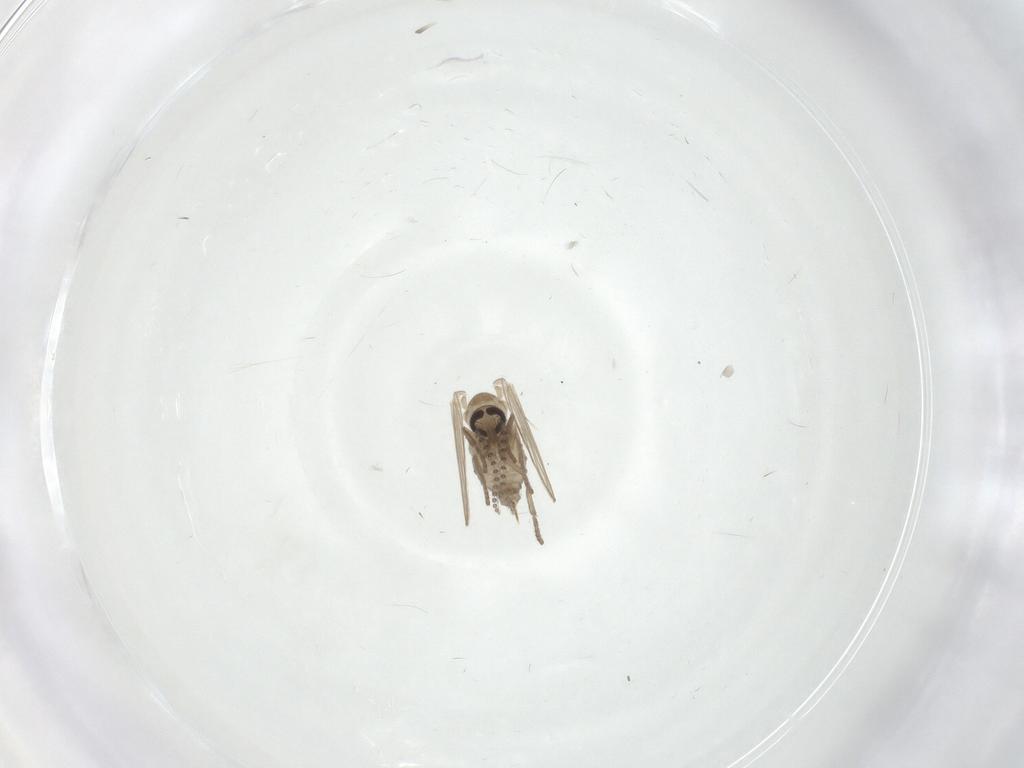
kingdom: Animalia
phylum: Arthropoda
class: Insecta
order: Diptera
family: Psychodidae
